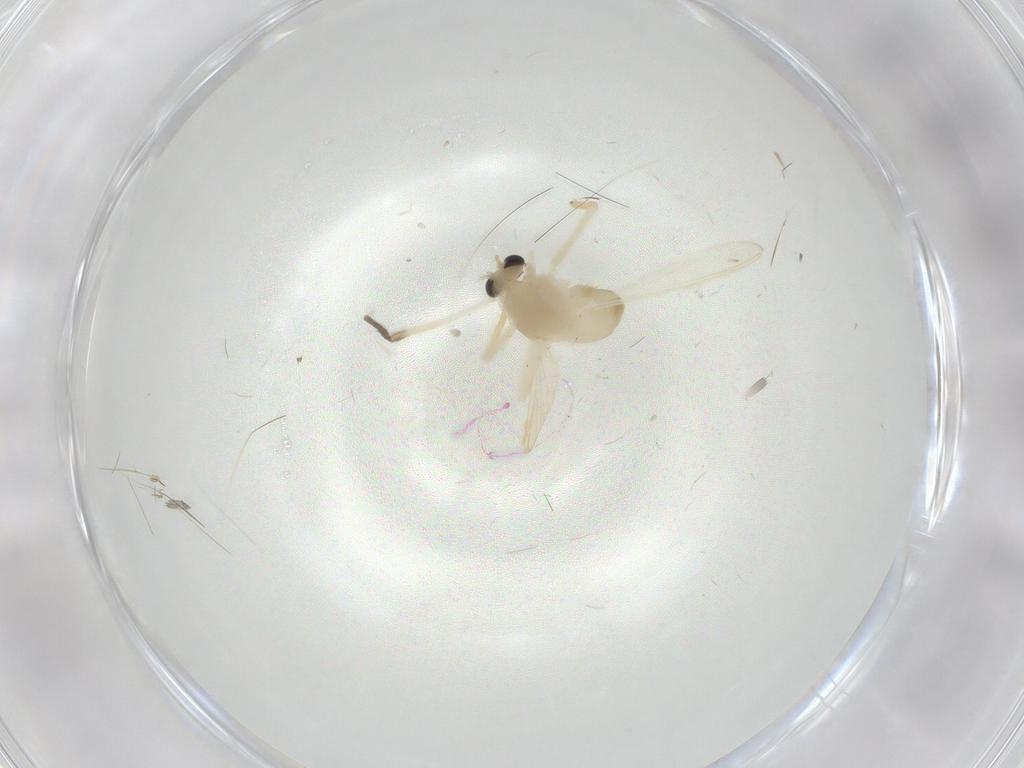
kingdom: Animalia
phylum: Arthropoda
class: Insecta
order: Diptera
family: Chironomidae
